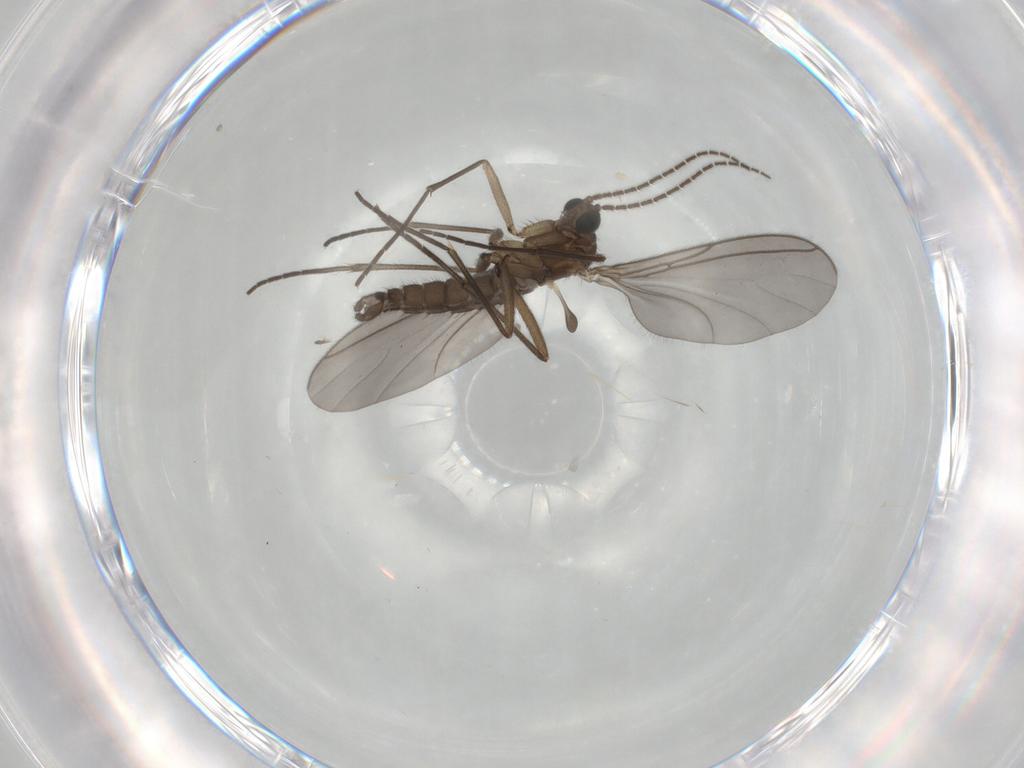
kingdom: Animalia
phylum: Arthropoda
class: Insecta
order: Diptera
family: Sciaridae
